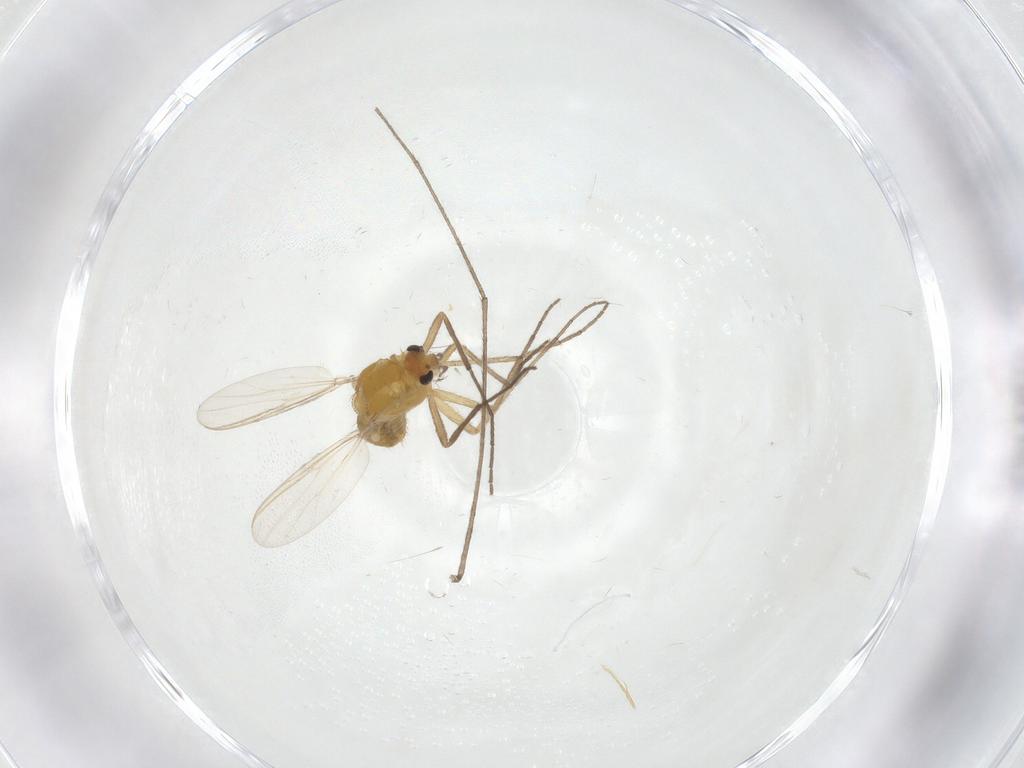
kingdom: Animalia
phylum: Arthropoda
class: Insecta
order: Diptera
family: Chironomidae
